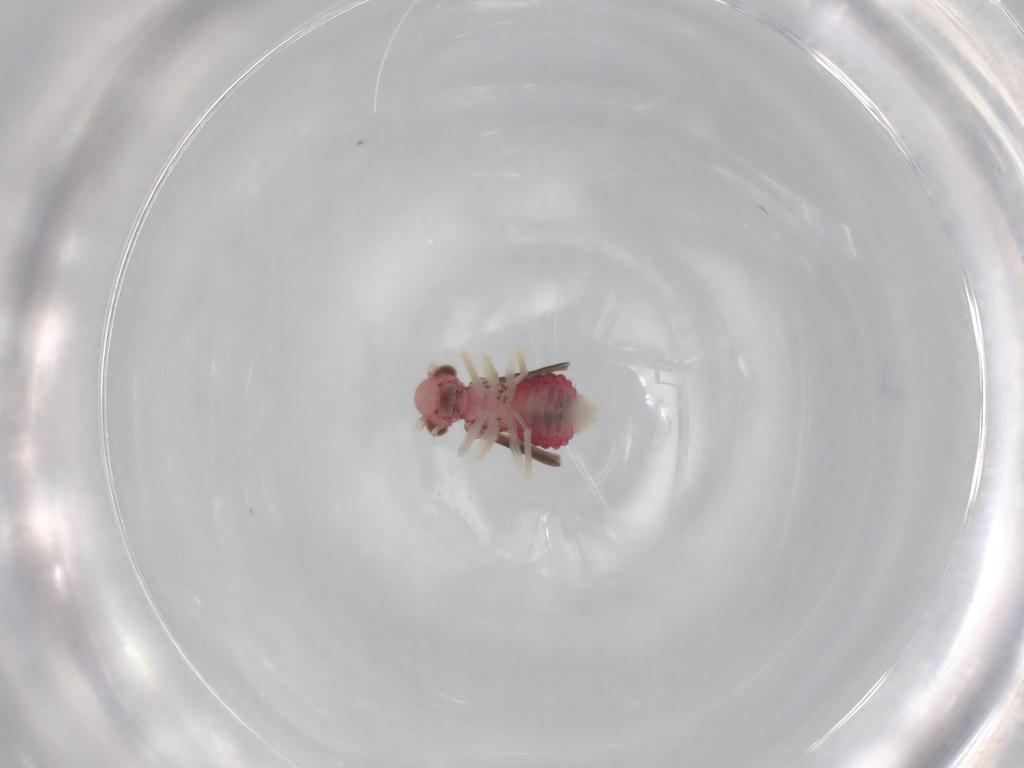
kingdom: Animalia
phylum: Arthropoda
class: Insecta
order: Psocodea
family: Caeciliusidae
